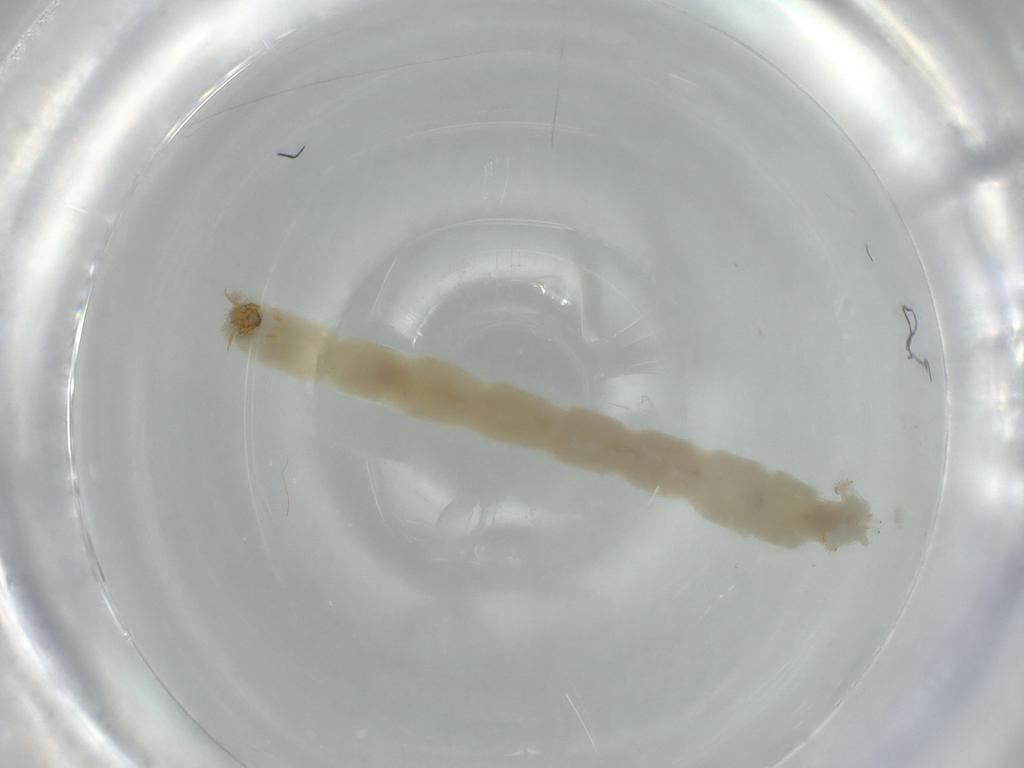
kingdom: Animalia
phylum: Arthropoda
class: Insecta
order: Diptera
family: Chironomidae
